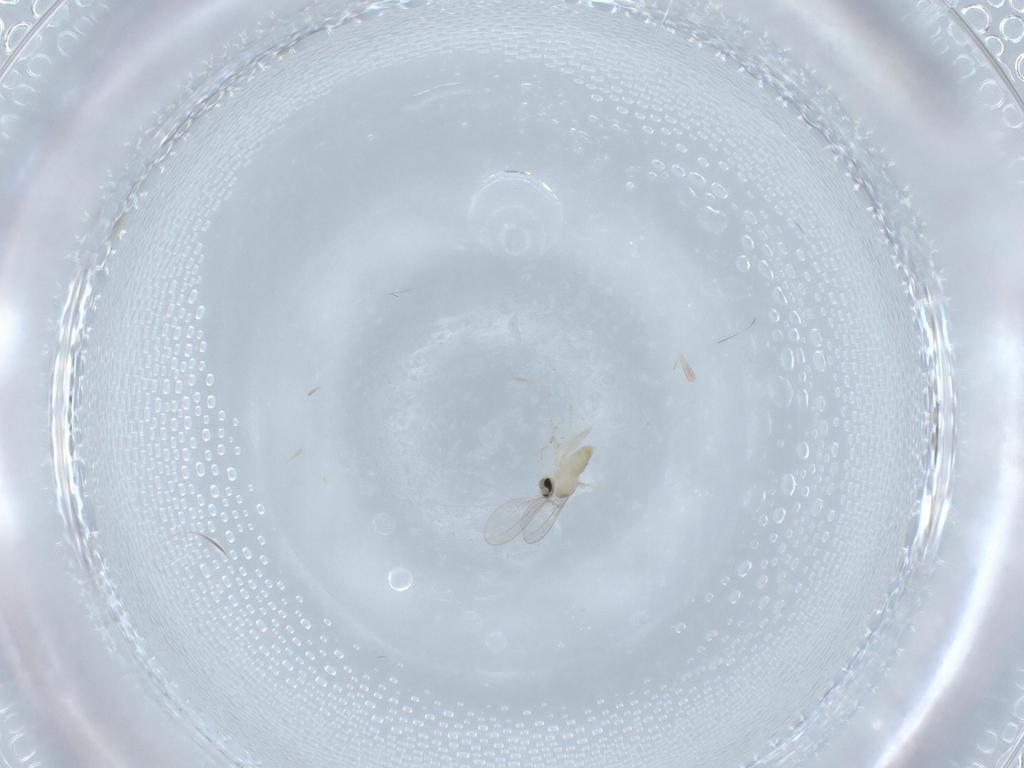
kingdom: Animalia
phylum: Arthropoda
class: Insecta
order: Diptera
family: Cecidomyiidae
